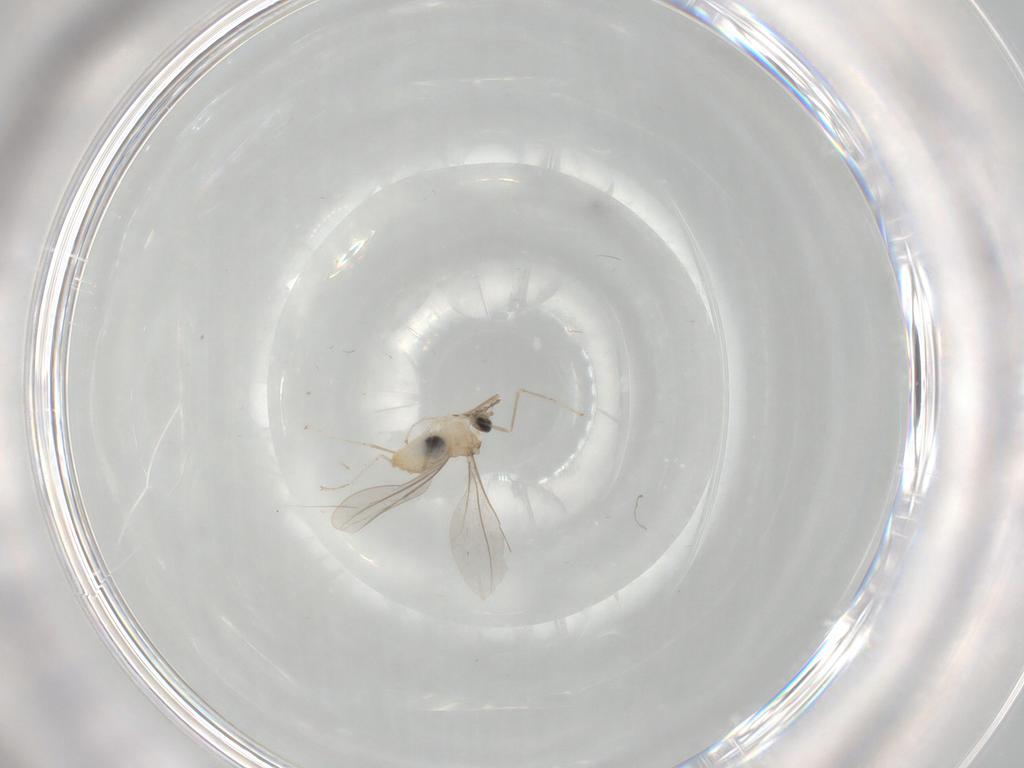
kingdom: Animalia
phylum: Arthropoda
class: Insecta
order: Diptera
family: Cecidomyiidae
